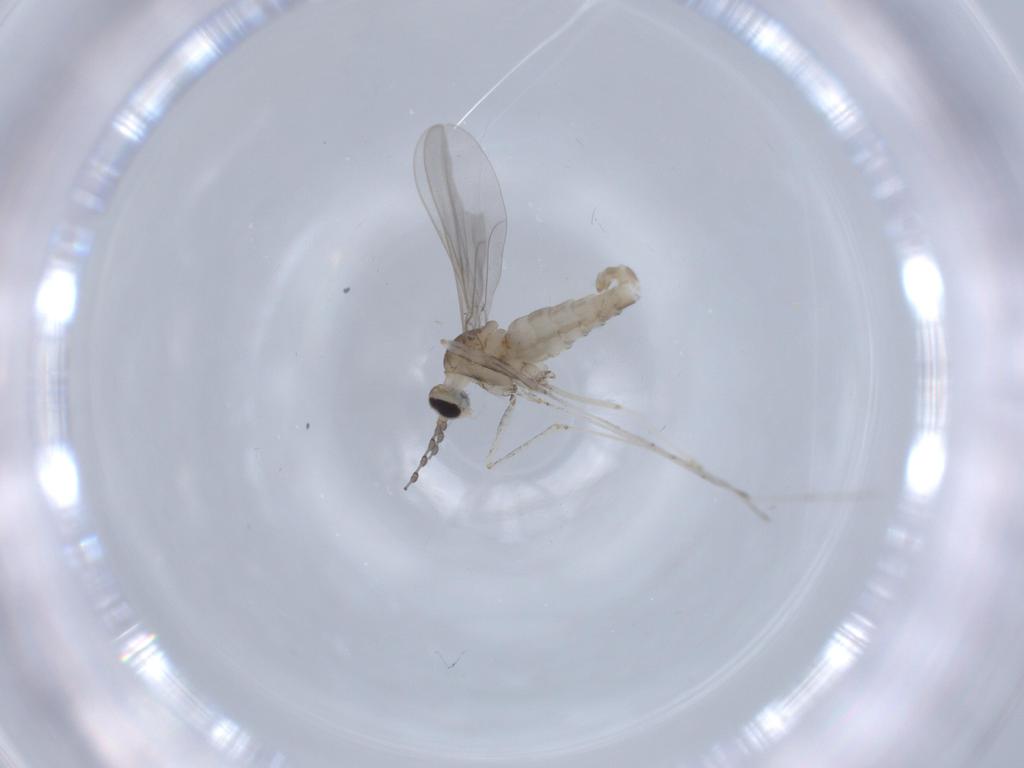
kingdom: Animalia
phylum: Arthropoda
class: Insecta
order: Diptera
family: Cecidomyiidae
